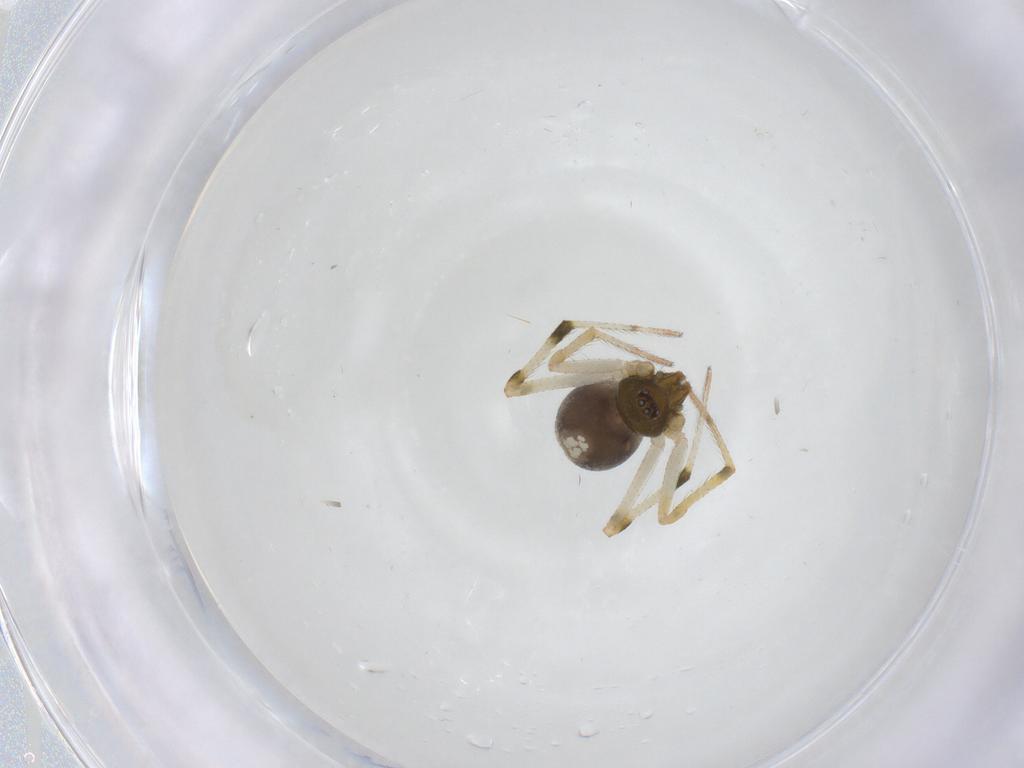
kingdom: Animalia
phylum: Arthropoda
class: Arachnida
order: Araneae
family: Theridiidae
